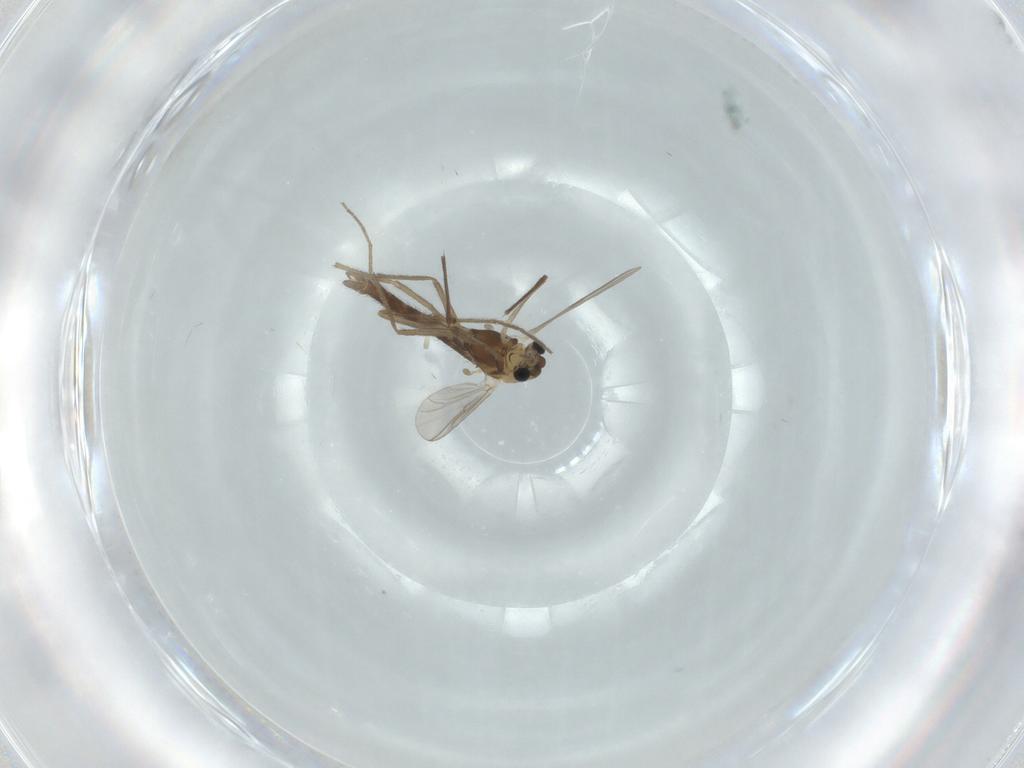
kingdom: Animalia
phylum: Arthropoda
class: Insecta
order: Diptera
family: Chironomidae
